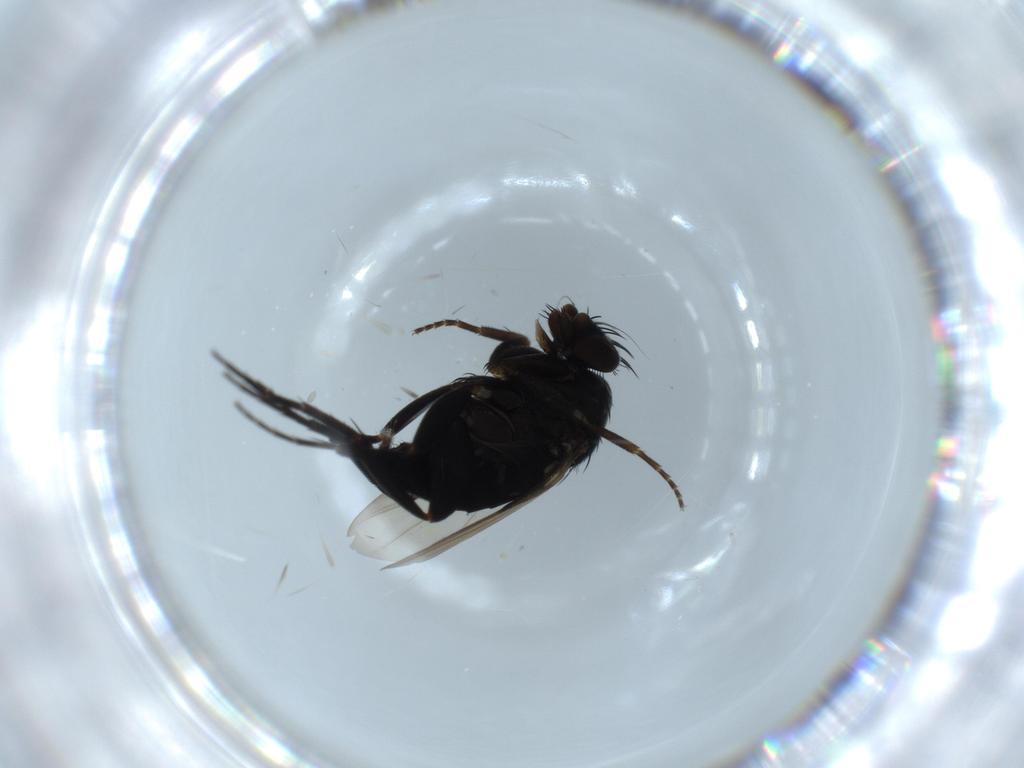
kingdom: Animalia
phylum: Arthropoda
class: Insecta
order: Diptera
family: Phoridae
